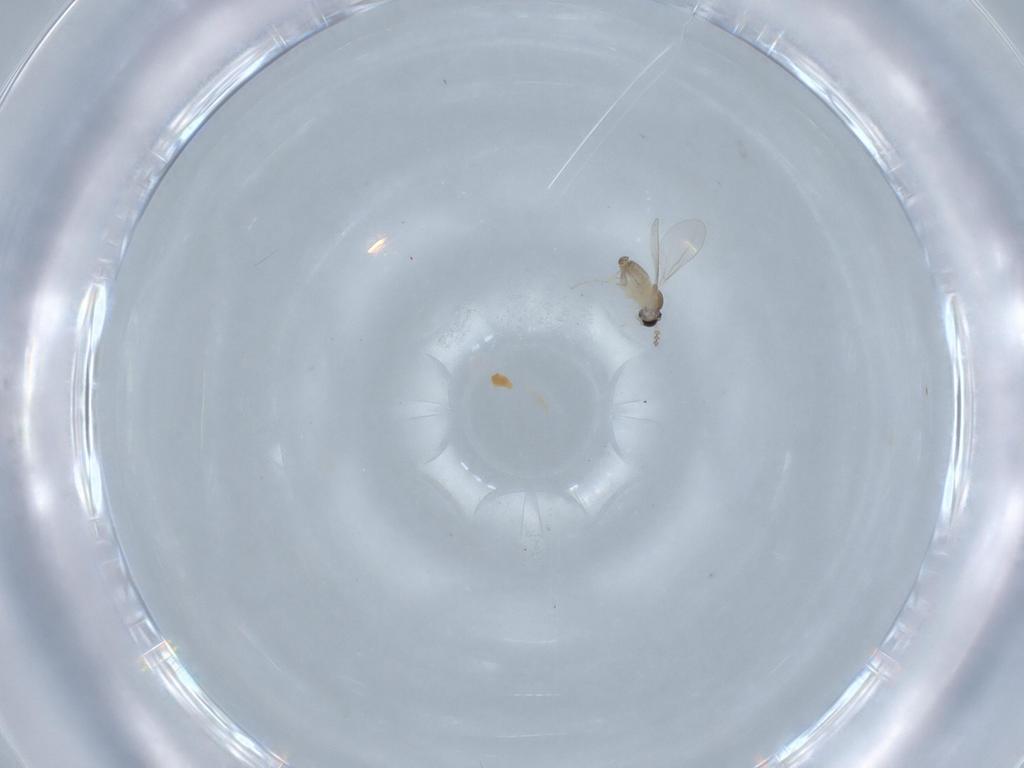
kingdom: Animalia
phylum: Arthropoda
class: Insecta
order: Diptera
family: Cecidomyiidae
